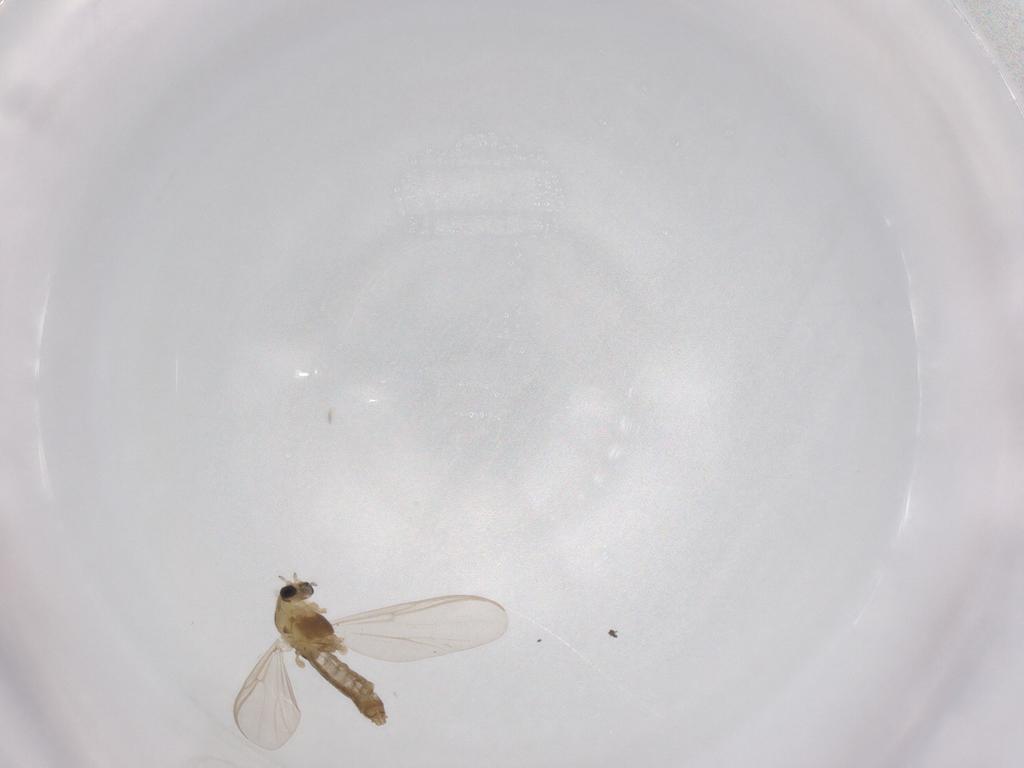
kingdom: Animalia
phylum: Arthropoda
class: Insecta
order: Diptera
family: Sciaridae
